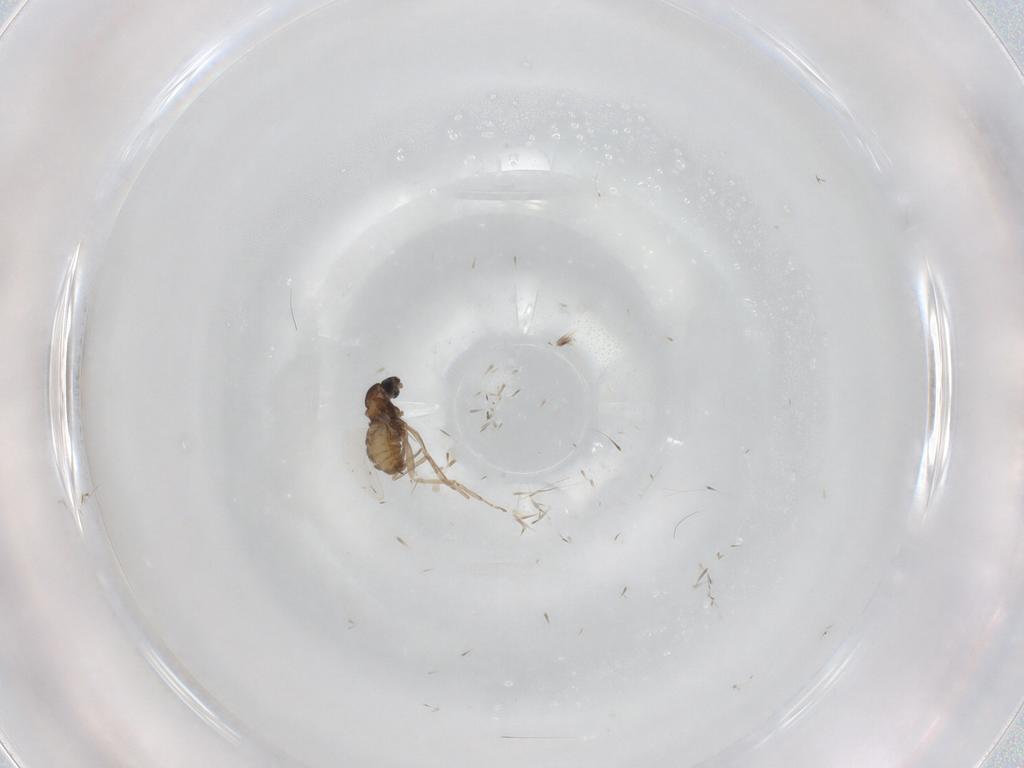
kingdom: Animalia
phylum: Arthropoda
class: Insecta
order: Diptera
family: Cecidomyiidae
